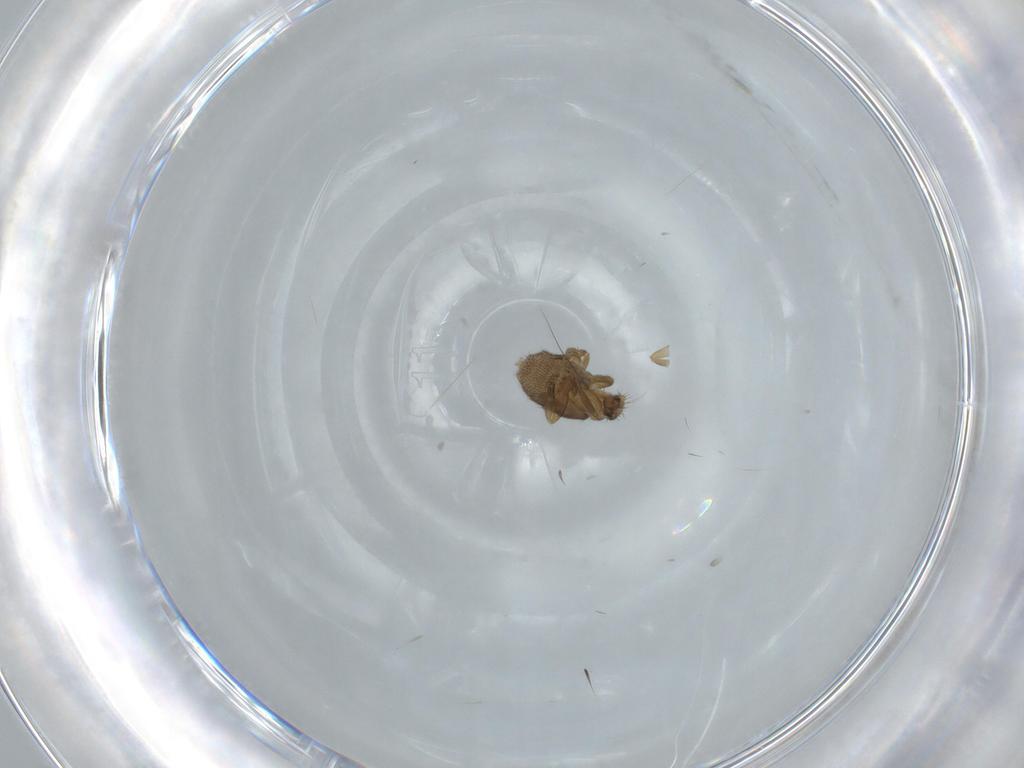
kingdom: Animalia
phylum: Arthropoda
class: Insecta
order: Diptera
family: Phoridae
